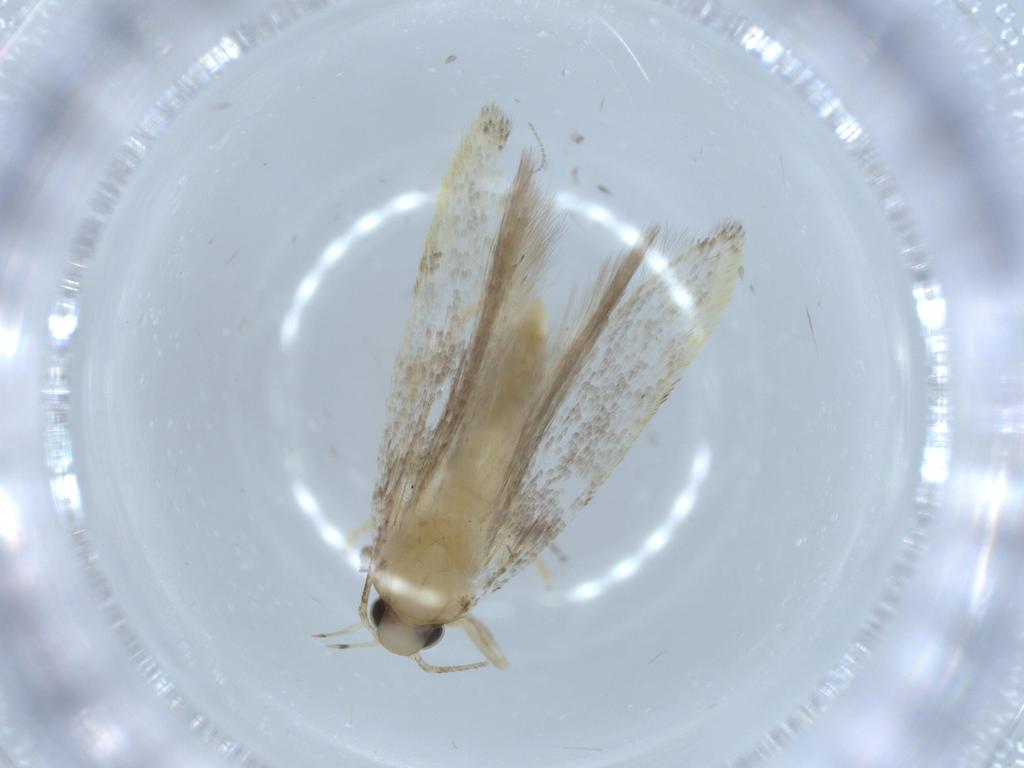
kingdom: Animalia
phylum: Arthropoda
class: Insecta
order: Lepidoptera
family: Autostichidae
